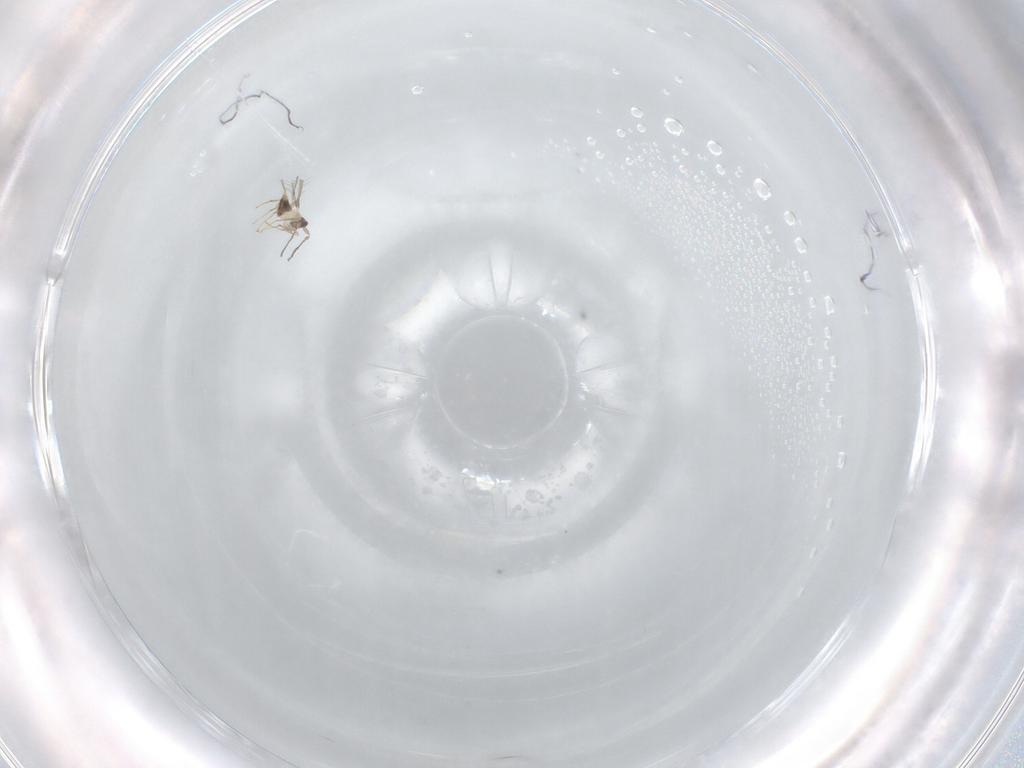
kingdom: Animalia
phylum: Arthropoda
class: Insecta
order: Hymenoptera
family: Mymaridae
